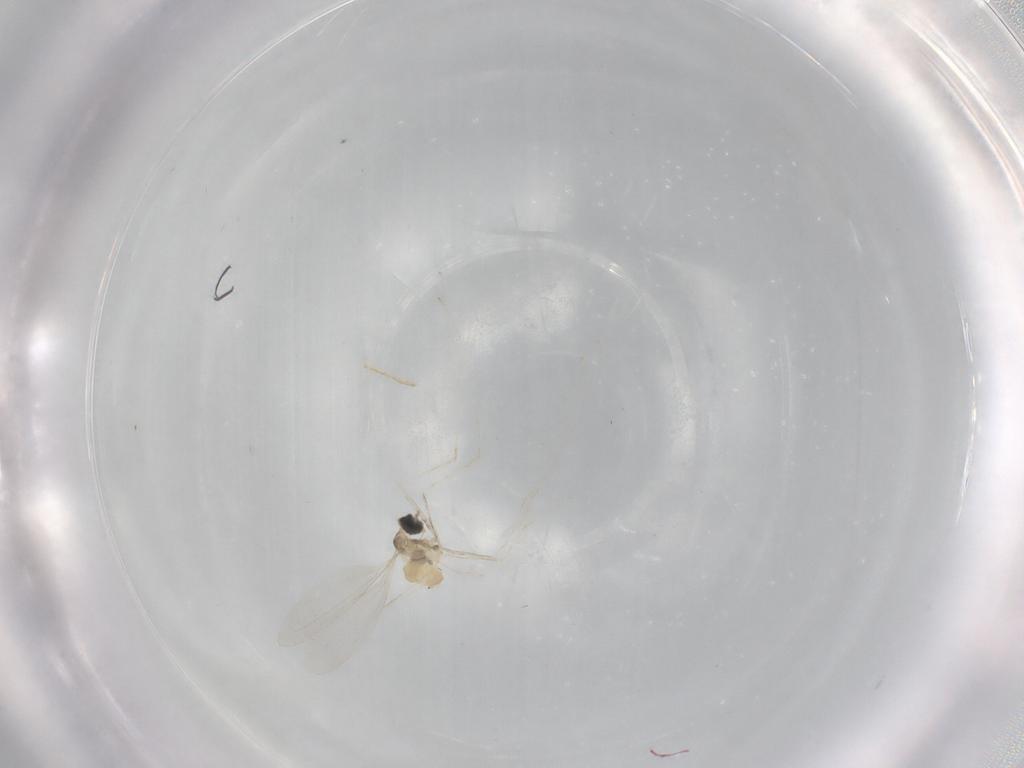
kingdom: Animalia
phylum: Arthropoda
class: Insecta
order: Diptera
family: Cecidomyiidae
